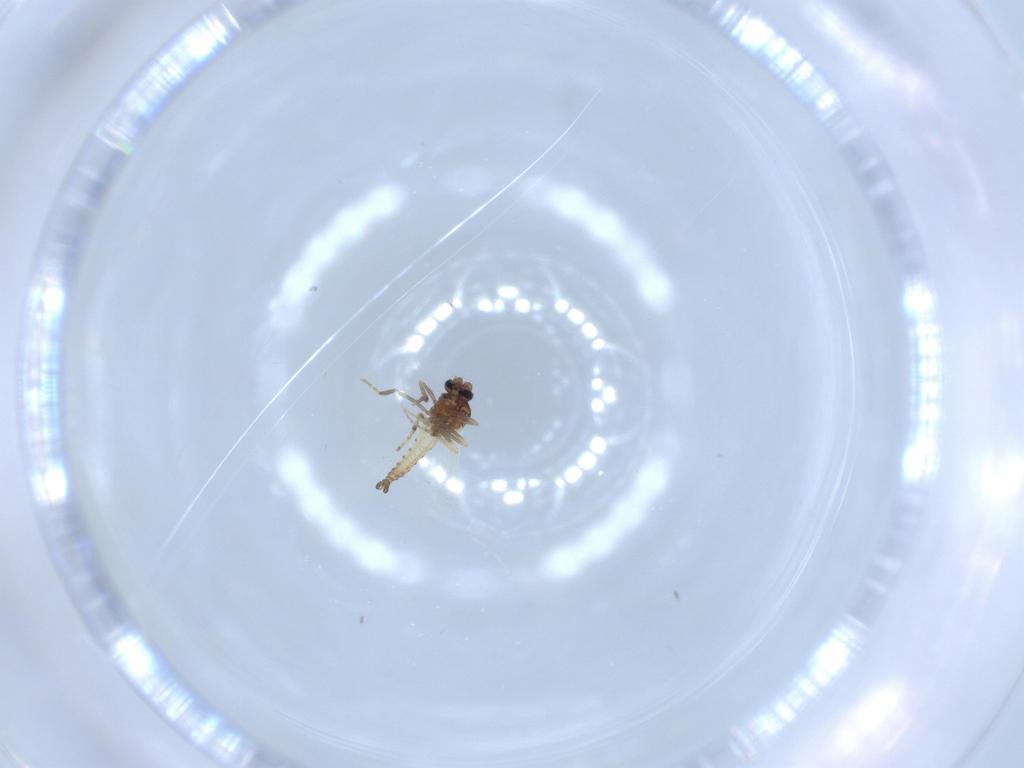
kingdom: Animalia
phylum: Arthropoda
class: Insecta
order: Diptera
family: Ceratopogonidae
